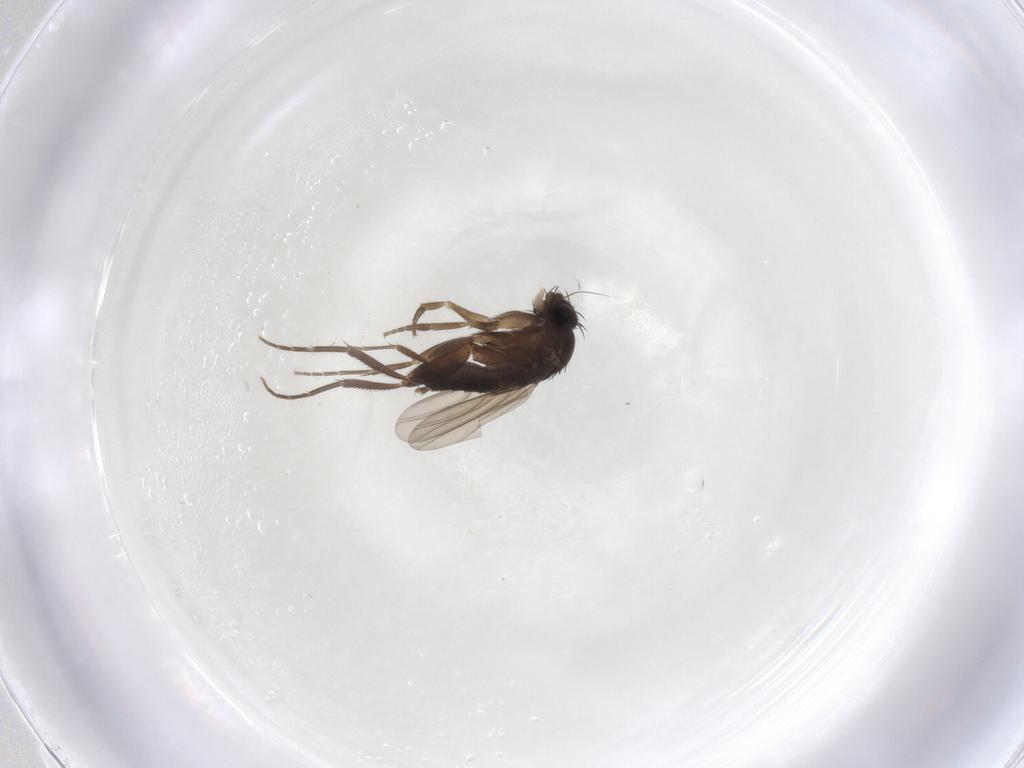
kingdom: Animalia
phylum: Arthropoda
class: Insecta
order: Diptera
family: Phoridae
